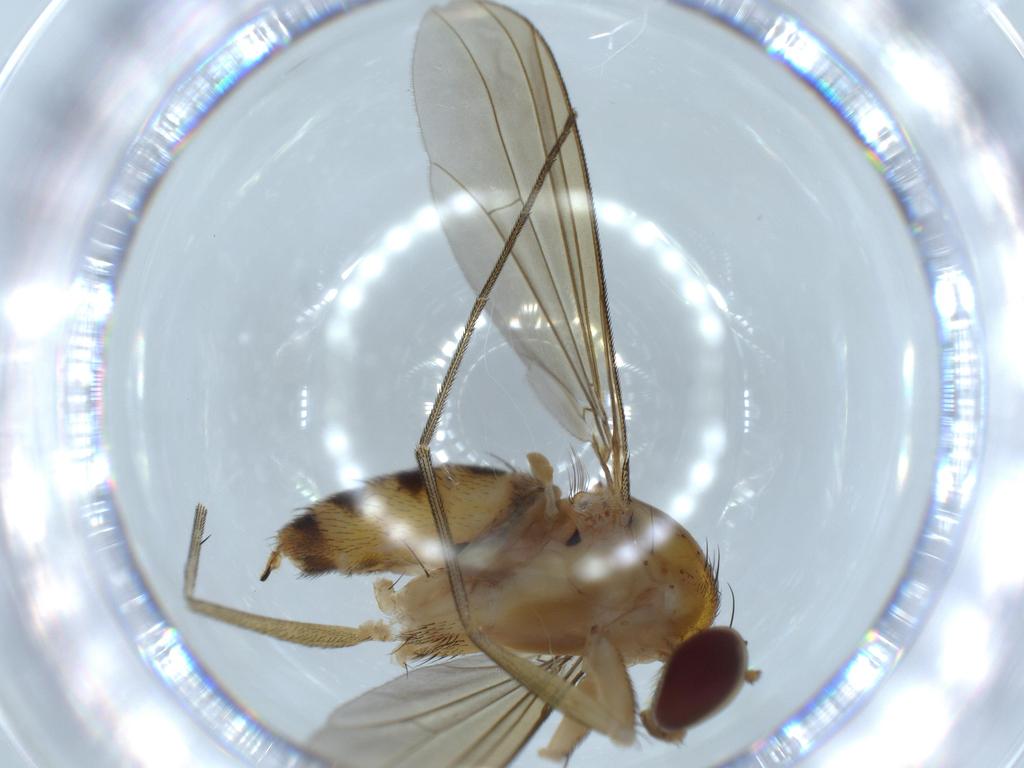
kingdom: Animalia
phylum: Arthropoda
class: Insecta
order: Diptera
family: Dolichopodidae
